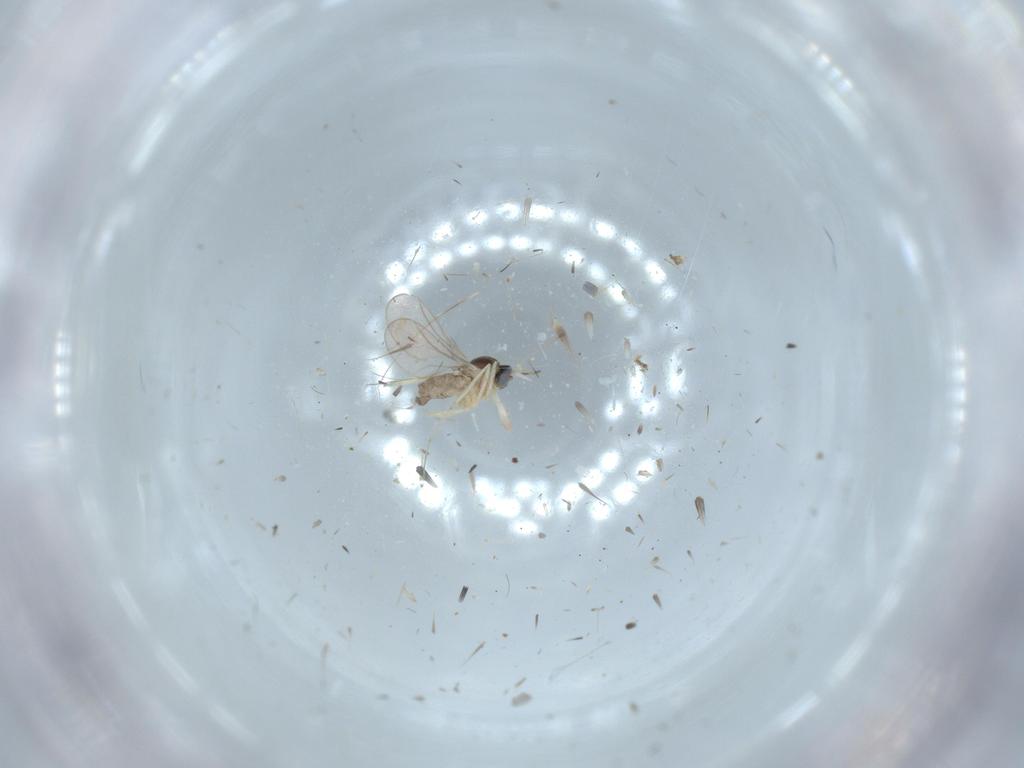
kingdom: Animalia
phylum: Arthropoda
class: Insecta
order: Diptera
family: Cecidomyiidae
